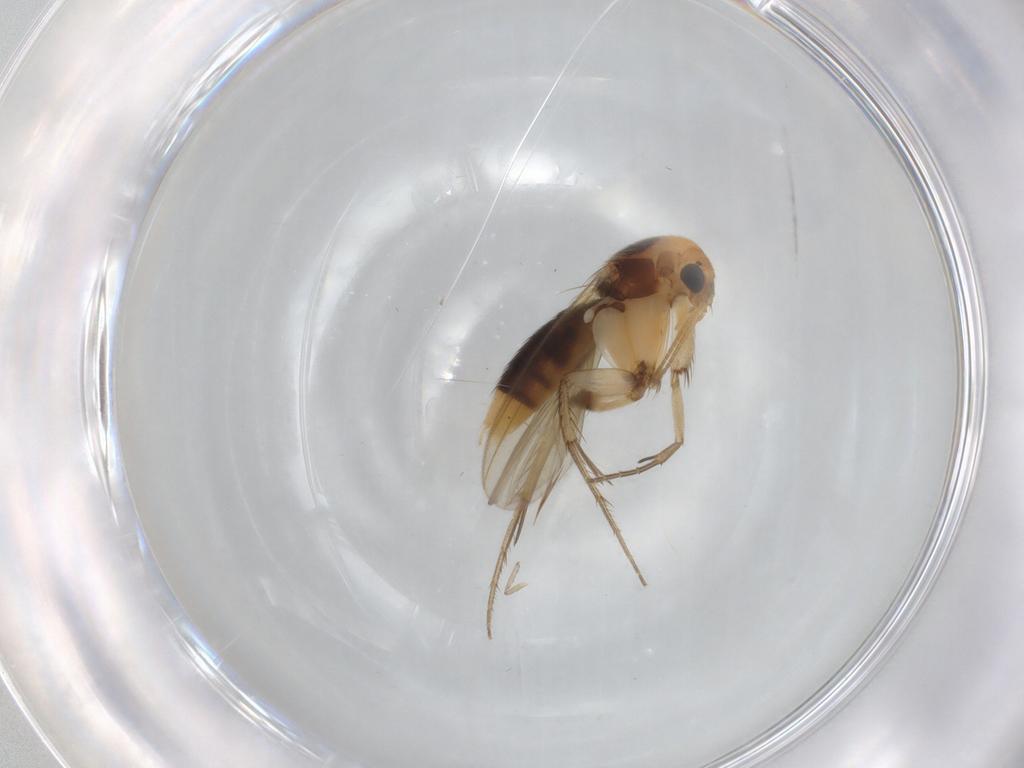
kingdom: Animalia
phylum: Arthropoda
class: Insecta
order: Diptera
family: Mycetophilidae
